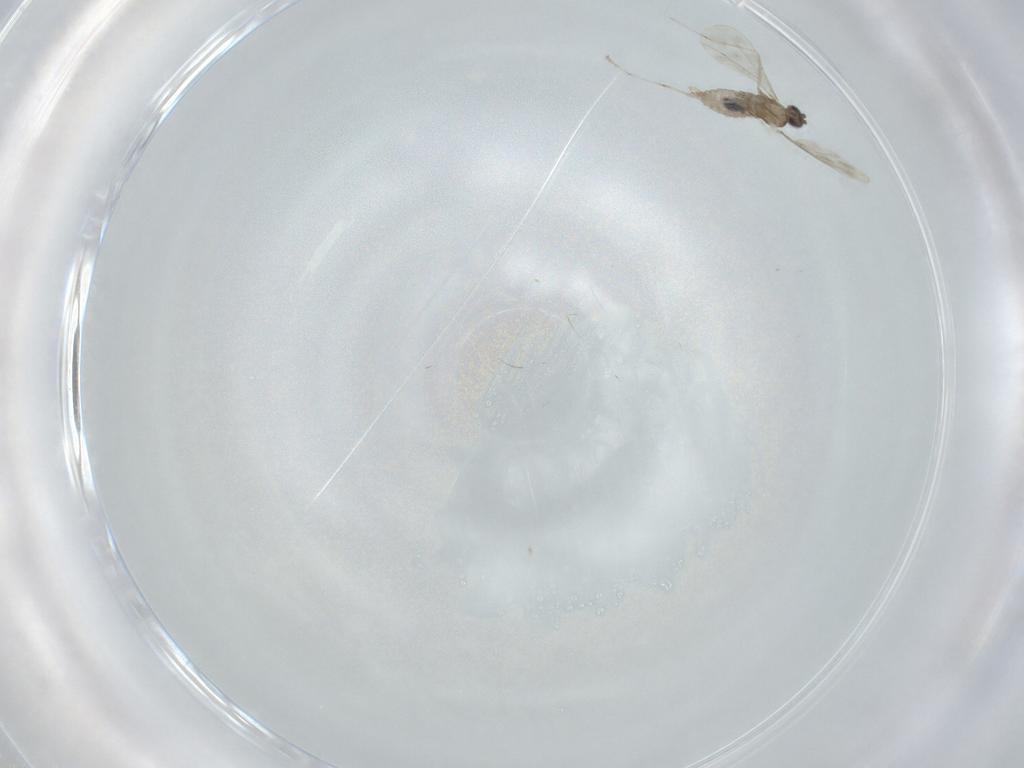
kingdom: Animalia
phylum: Arthropoda
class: Insecta
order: Diptera
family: Cecidomyiidae
